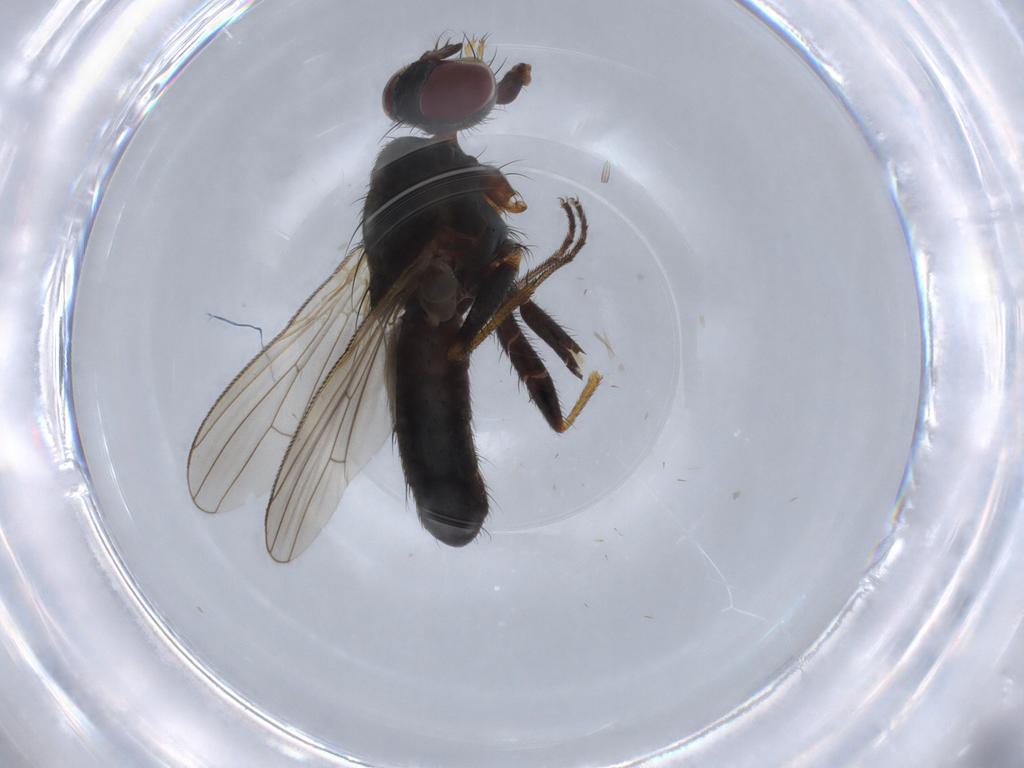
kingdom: Animalia
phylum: Arthropoda
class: Insecta
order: Diptera
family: Muscidae
